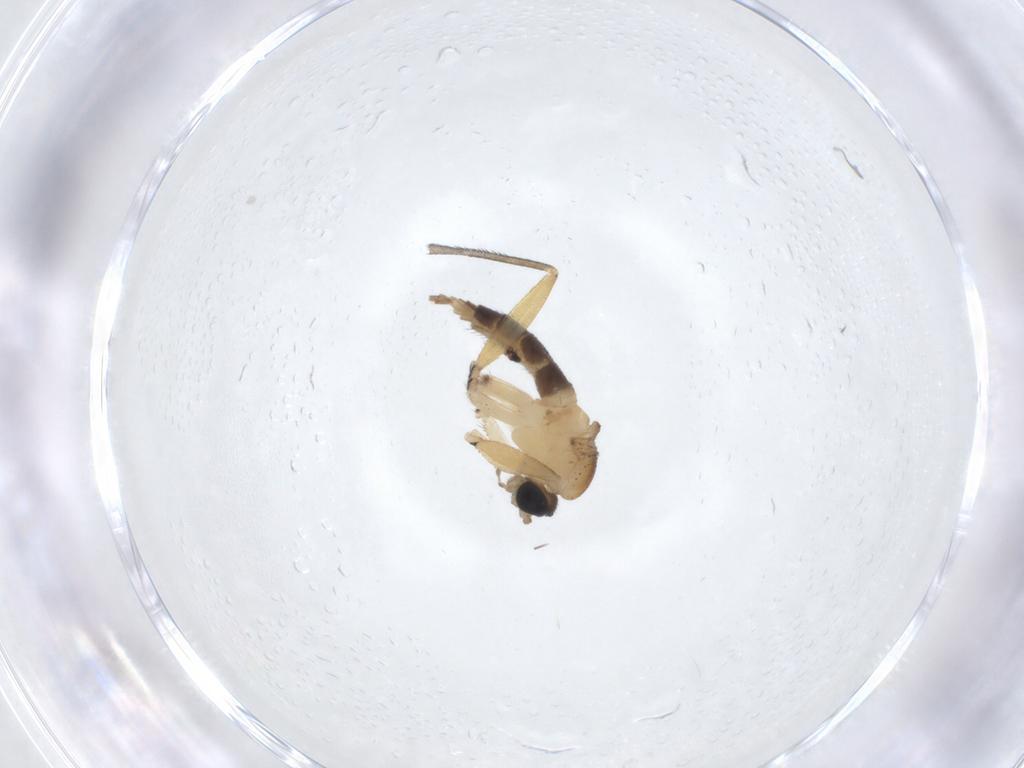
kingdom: Animalia
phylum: Arthropoda
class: Insecta
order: Diptera
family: Sciaridae
